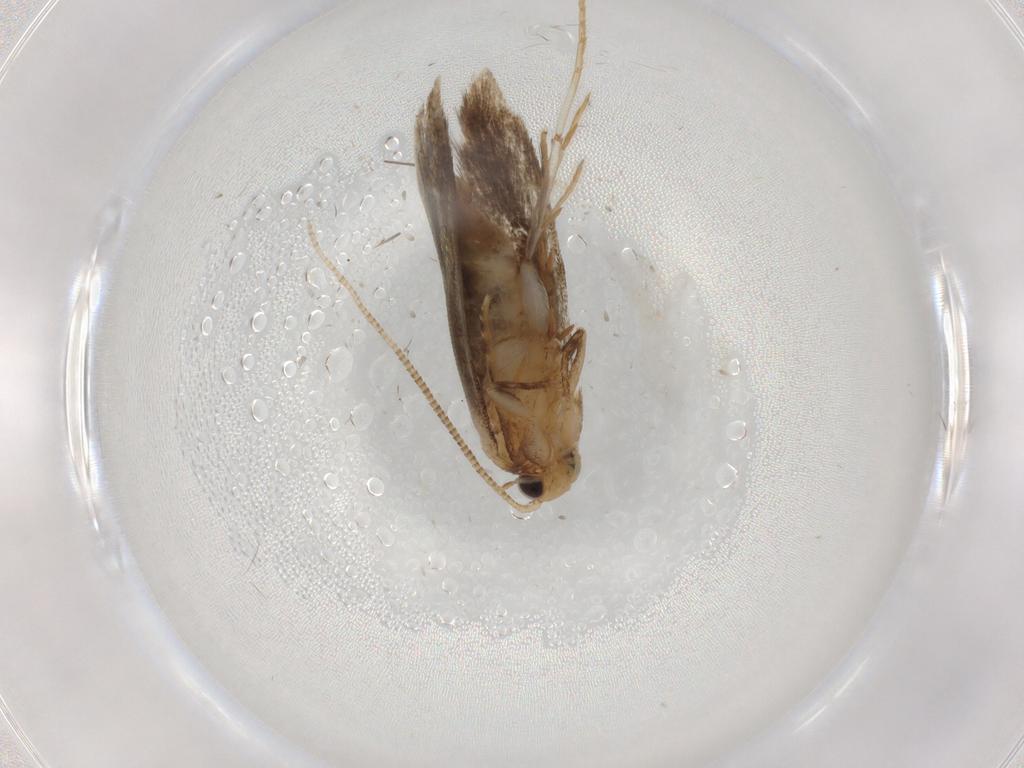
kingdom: Animalia
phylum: Arthropoda
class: Insecta
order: Lepidoptera
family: Tineidae
